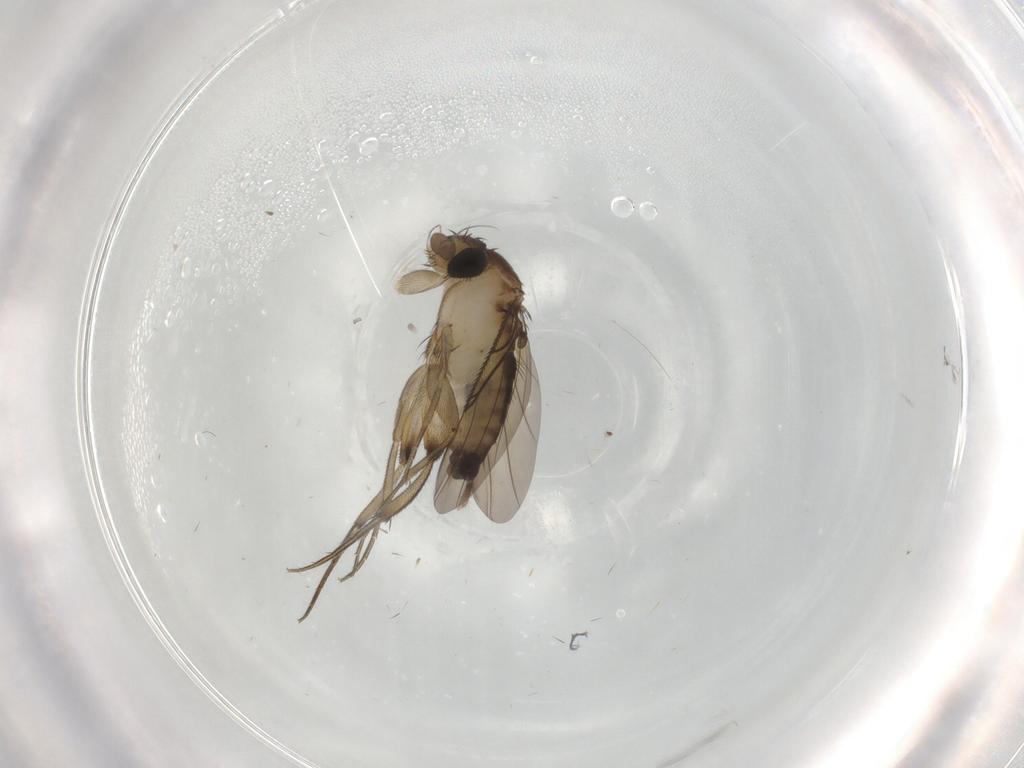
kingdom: Animalia
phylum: Arthropoda
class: Insecta
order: Diptera
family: Phoridae
